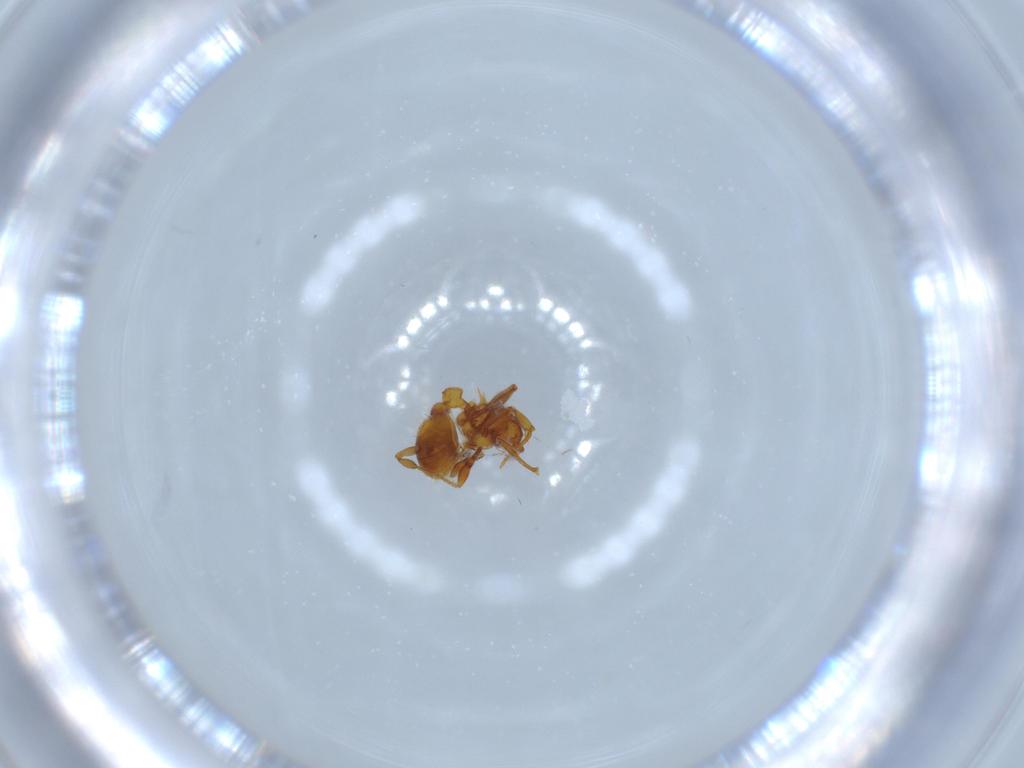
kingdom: Animalia
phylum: Arthropoda
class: Insecta
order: Hymenoptera
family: Formicidae
